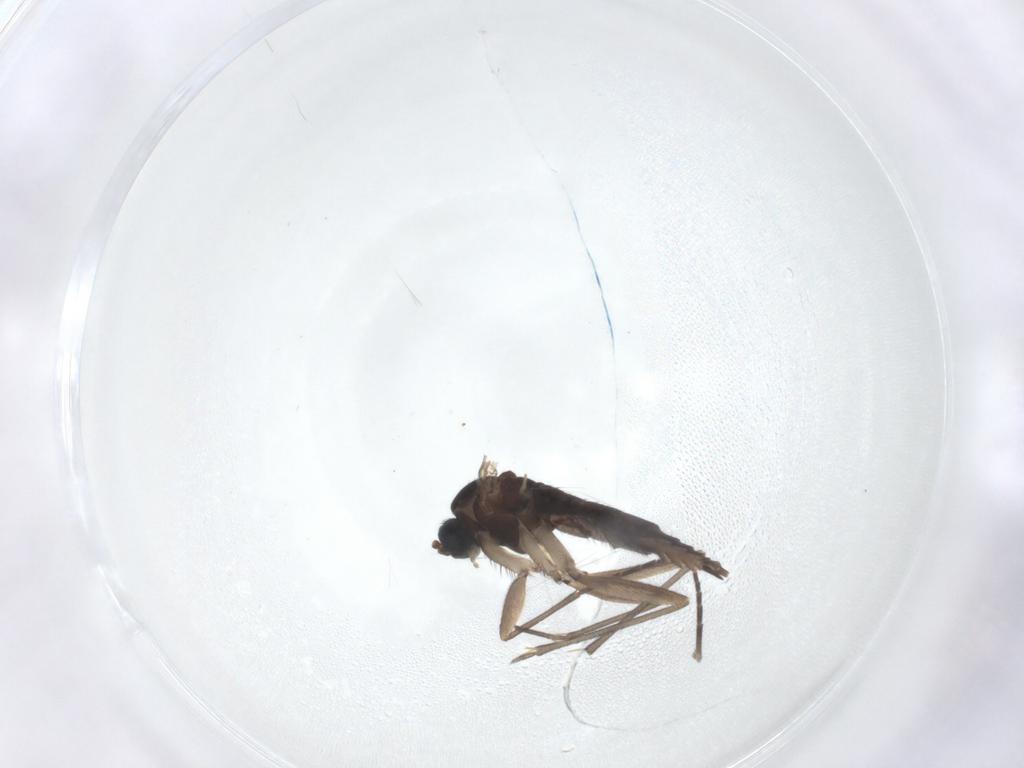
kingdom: Animalia
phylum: Arthropoda
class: Insecta
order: Diptera
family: Sciaridae
